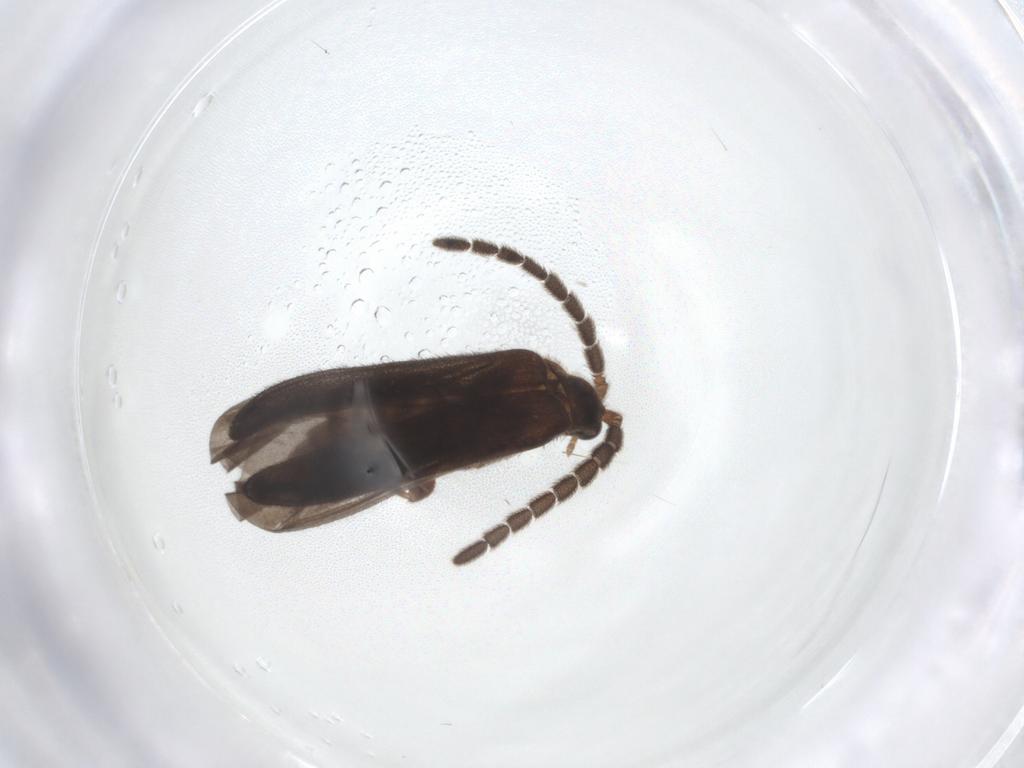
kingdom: Animalia
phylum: Arthropoda
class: Insecta
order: Coleoptera
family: Lycidae
